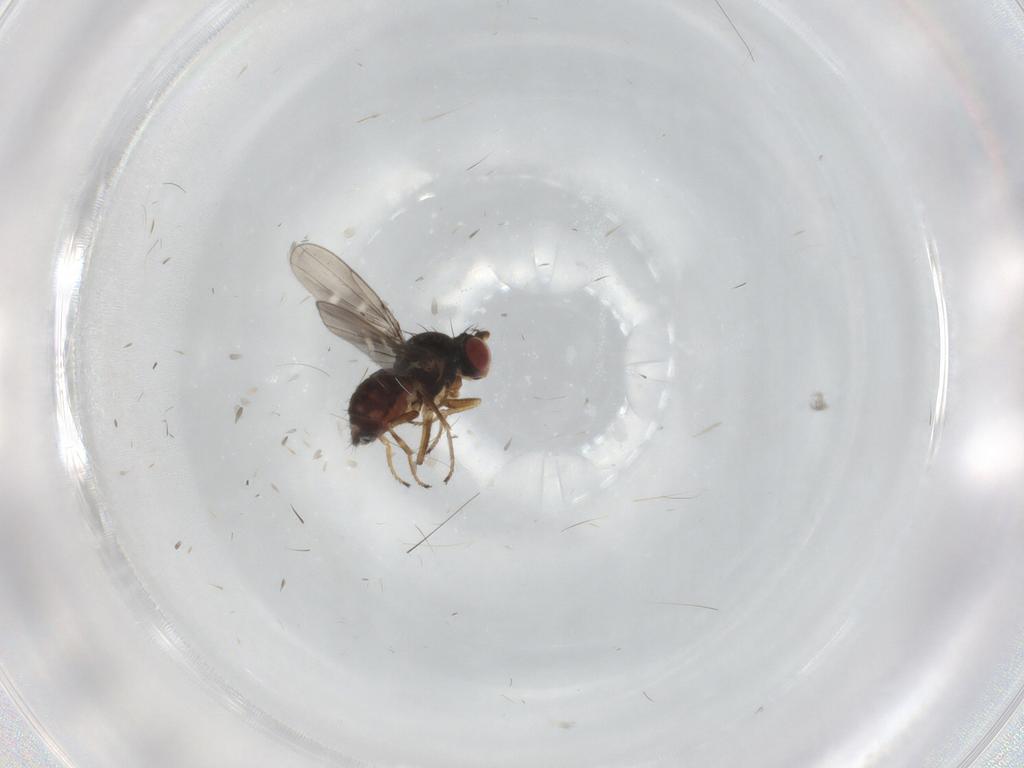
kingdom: Animalia
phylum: Arthropoda
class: Insecta
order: Diptera
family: Ephydridae
